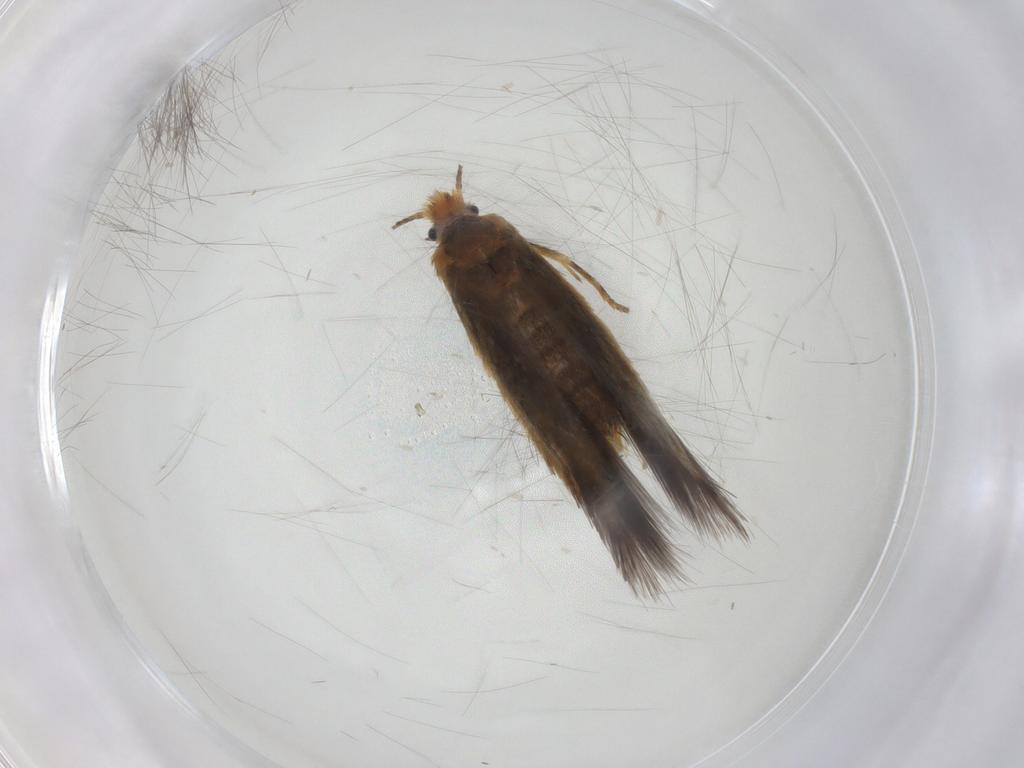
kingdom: Animalia
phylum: Arthropoda
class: Insecta
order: Lepidoptera
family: Nepticulidae
